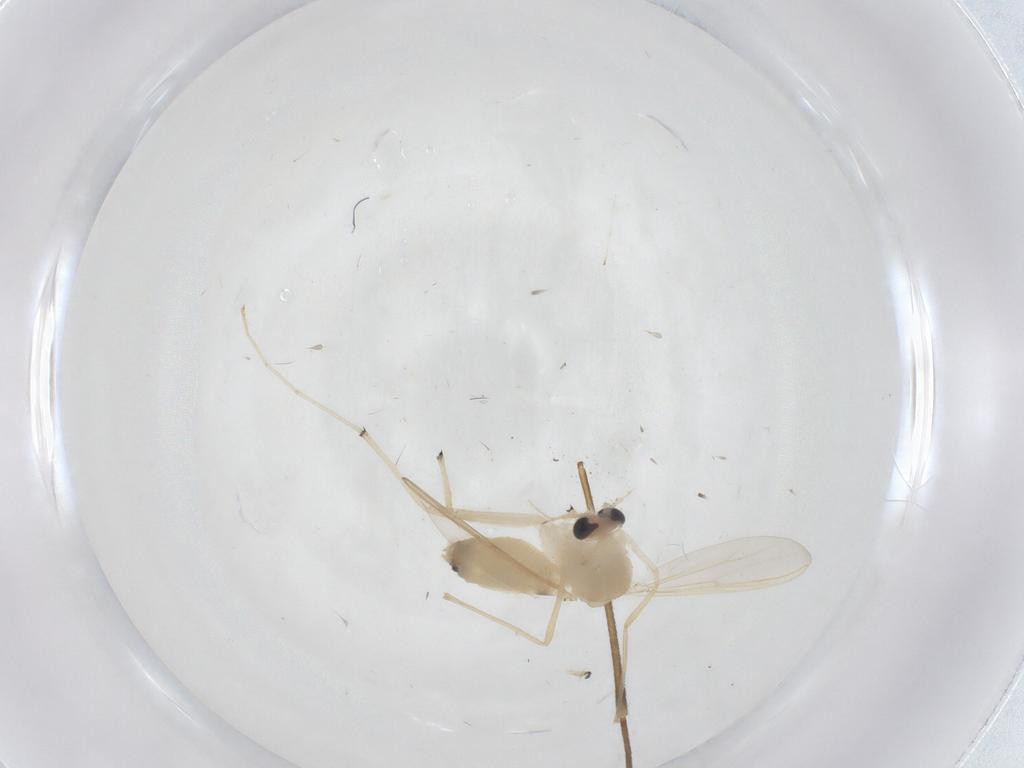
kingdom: Animalia
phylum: Arthropoda
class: Insecta
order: Diptera
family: Chironomidae
